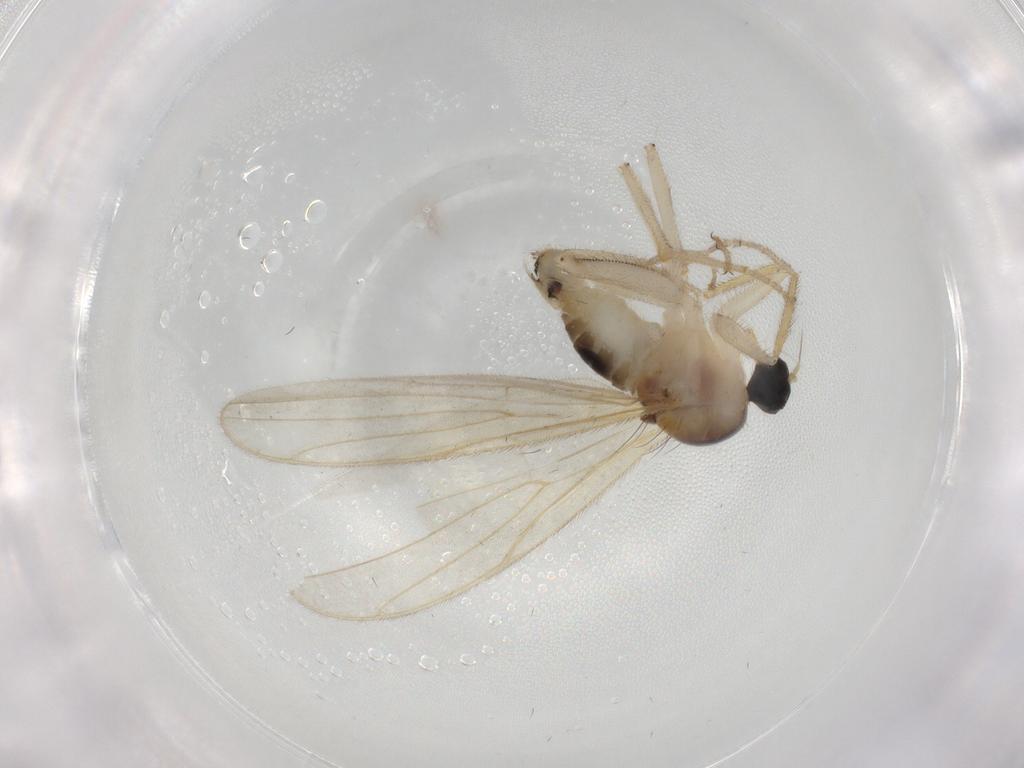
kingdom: Animalia
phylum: Arthropoda
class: Insecta
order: Diptera
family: Hybotidae
